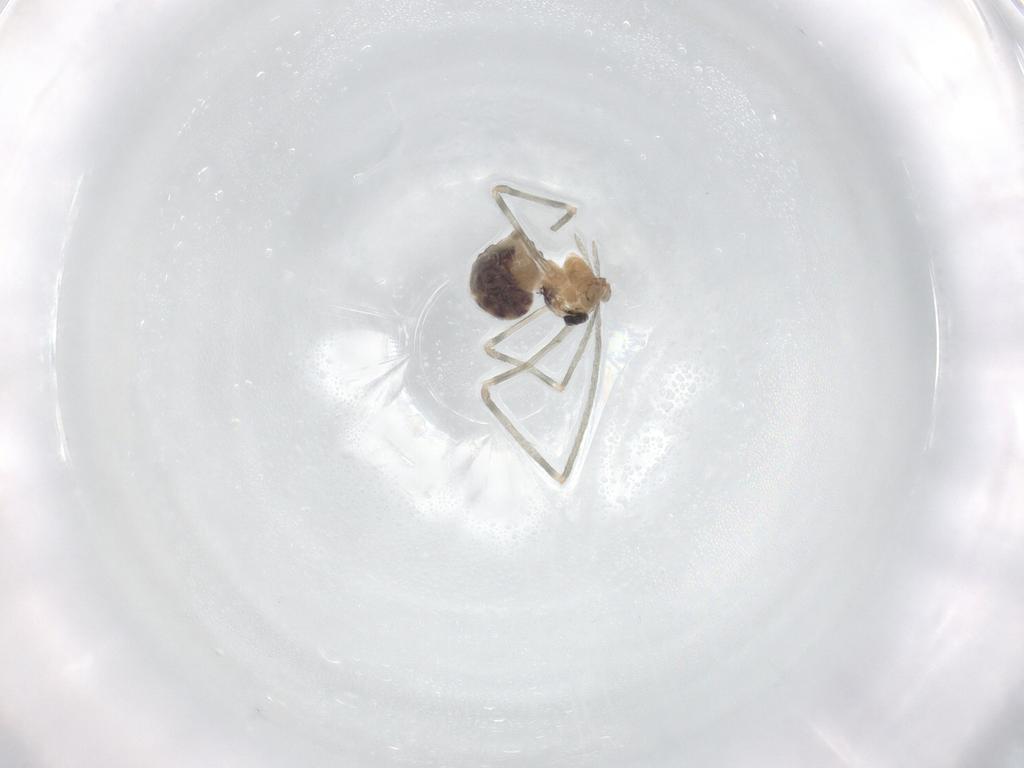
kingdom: Animalia
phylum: Arthropoda
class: Arachnida
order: Araneae
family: Pholcidae
